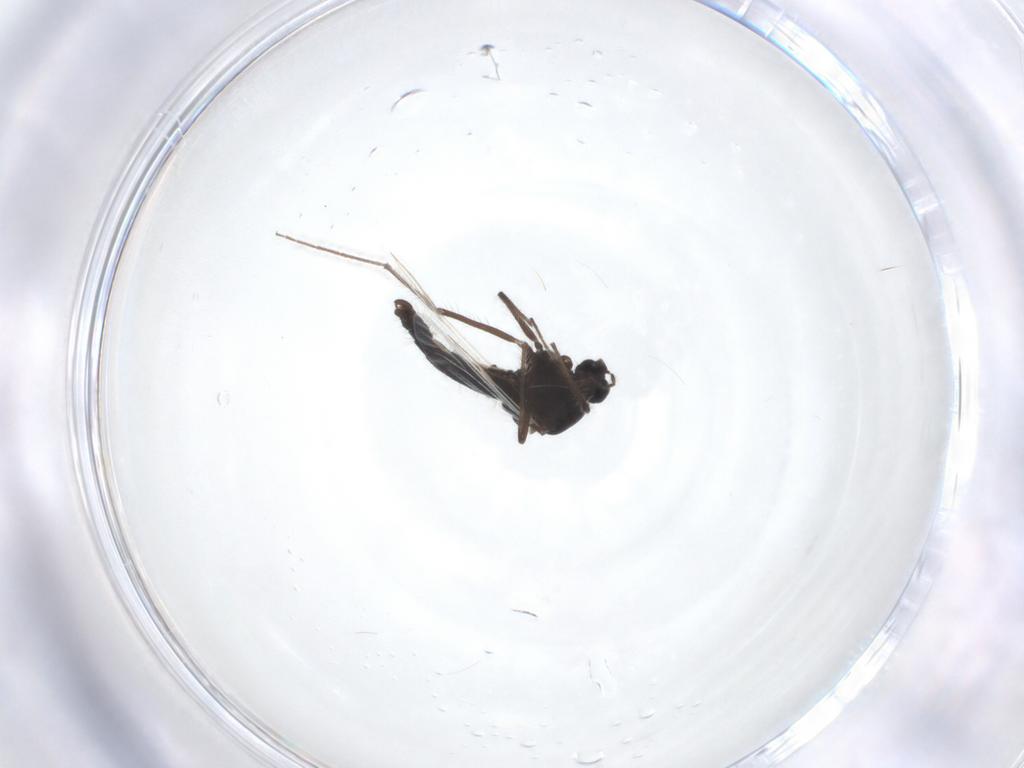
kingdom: Animalia
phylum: Arthropoda
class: Insecta
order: Diptera
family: Chironomidae
